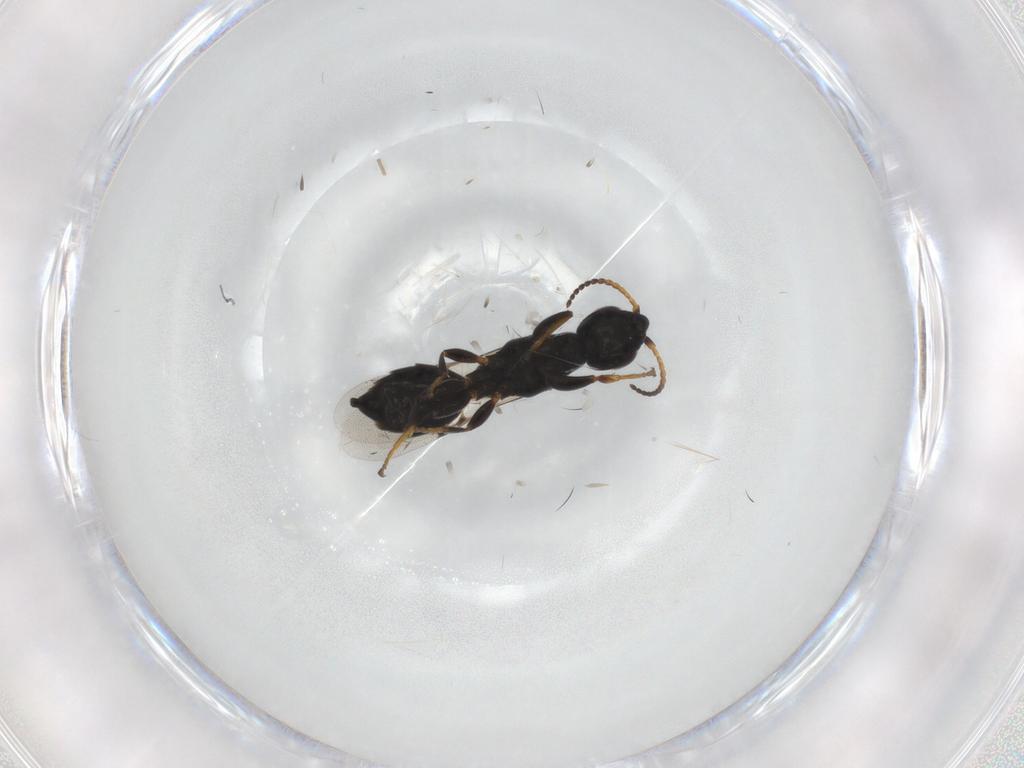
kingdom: Animalia
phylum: Arthropoda
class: Insecta
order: Hymenoptera
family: Bethylidae
